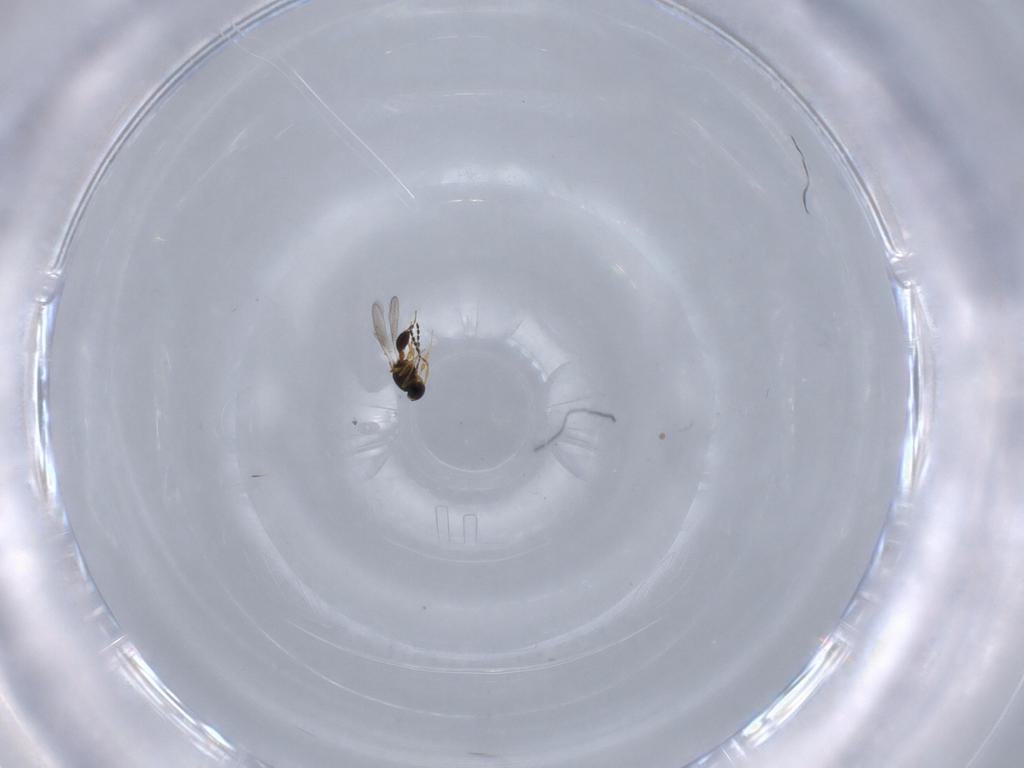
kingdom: Animalia
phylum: Arthropoda
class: Insecta
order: Hymenoptera
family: Platygastridae
